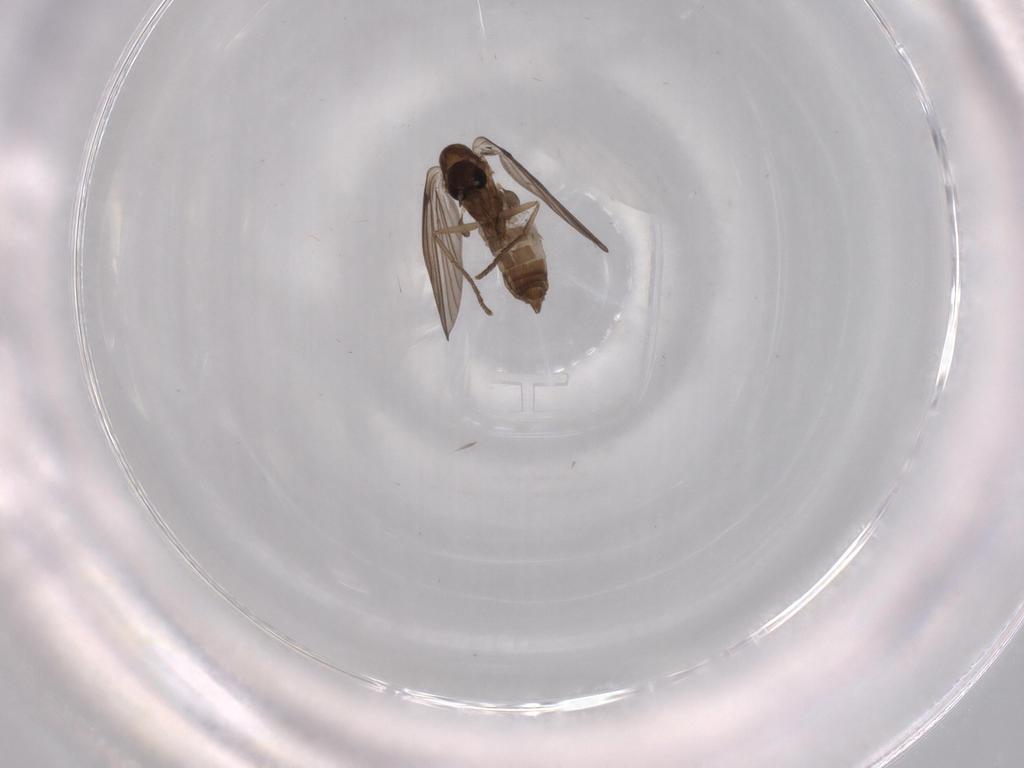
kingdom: Animalia
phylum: Arthropoda
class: Insecta
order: Diptera
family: Psychodidae
